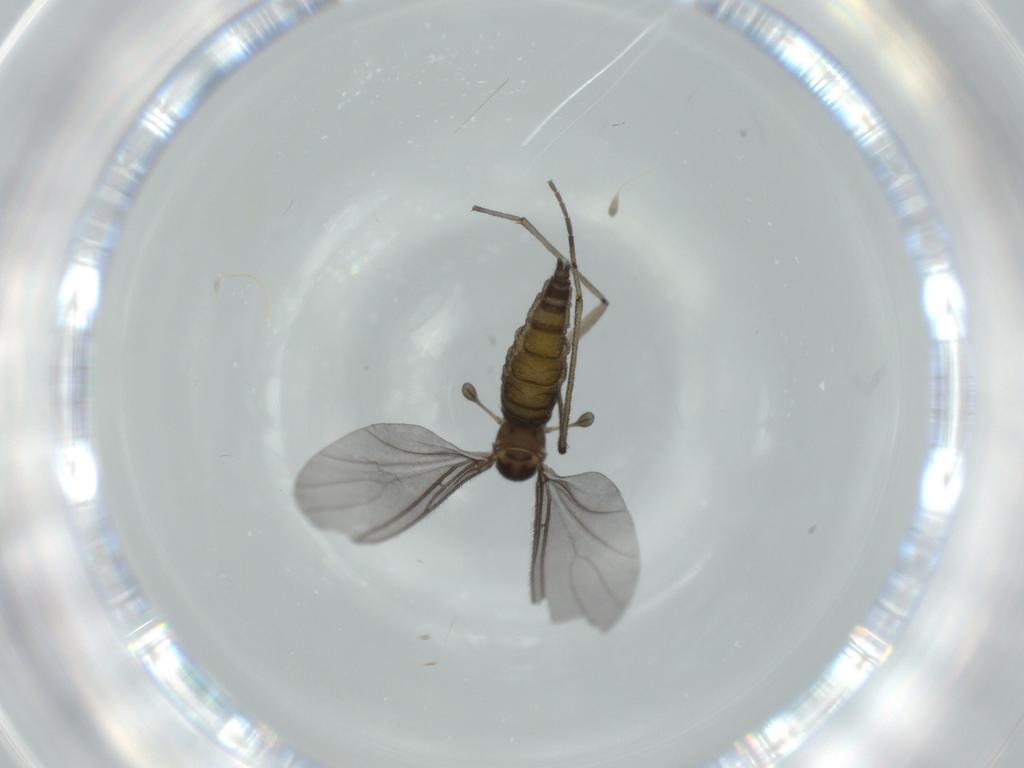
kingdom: Animalia
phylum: Arthropoda
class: Insecta
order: Diptera
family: Sciaridae
